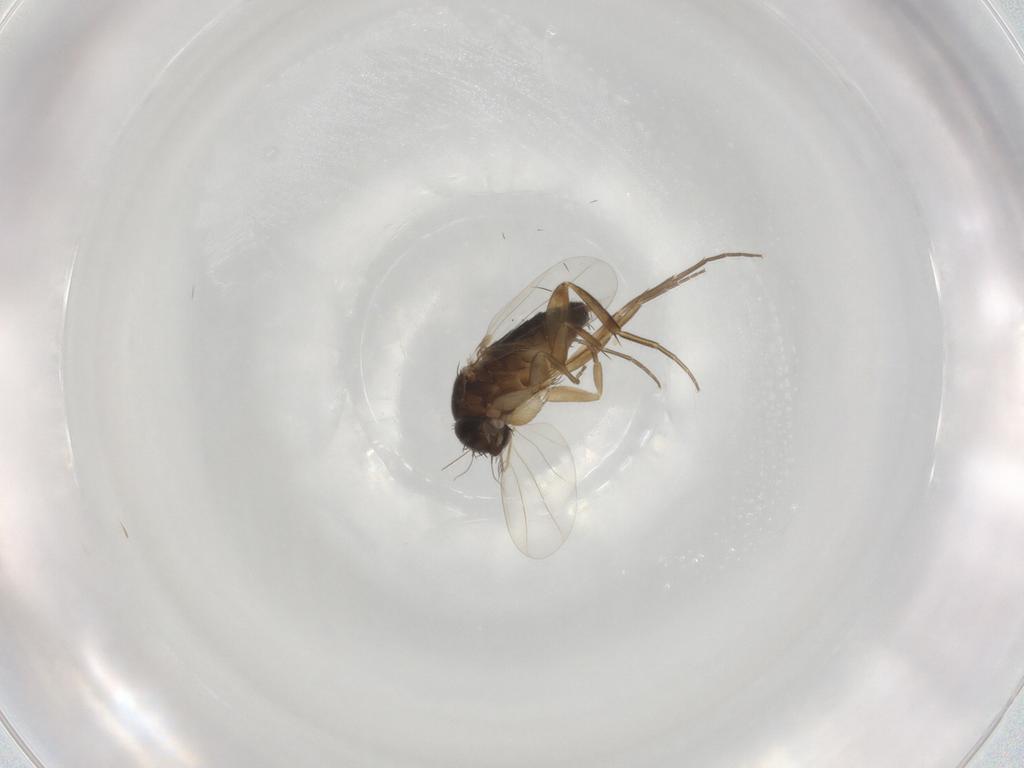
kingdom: Animalia
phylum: Arthropoda
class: Insecta
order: Diptera
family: Phoridae
